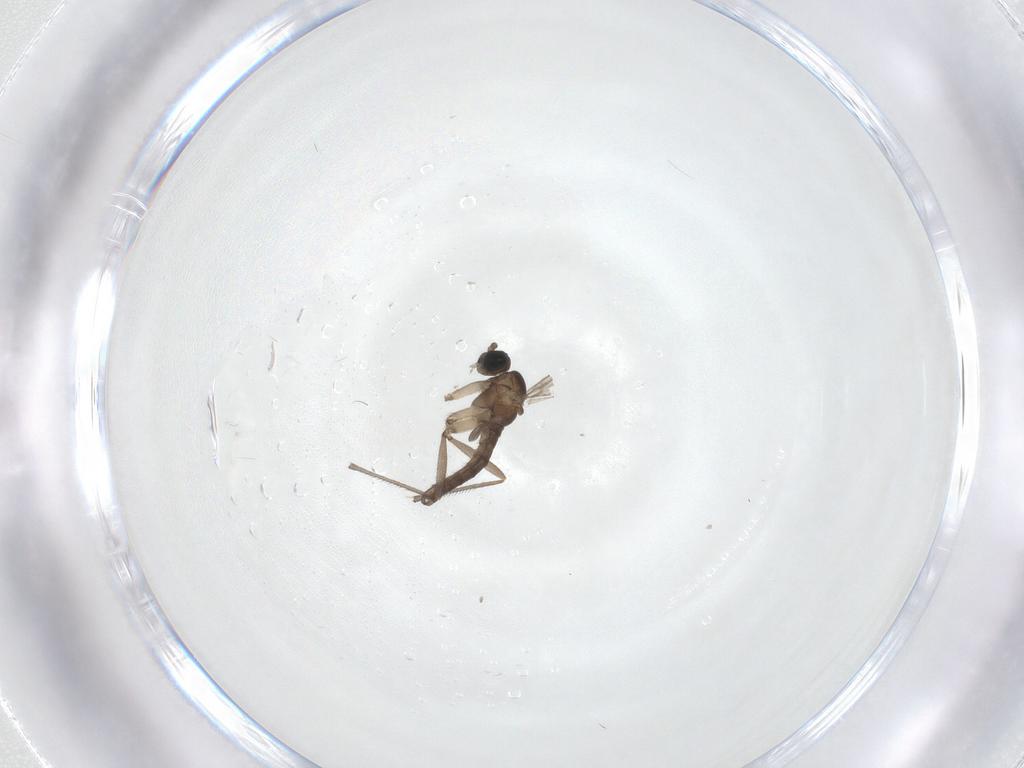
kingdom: Animalia
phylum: Arthropoda
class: Insecta
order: Diptera
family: Sciaridae
